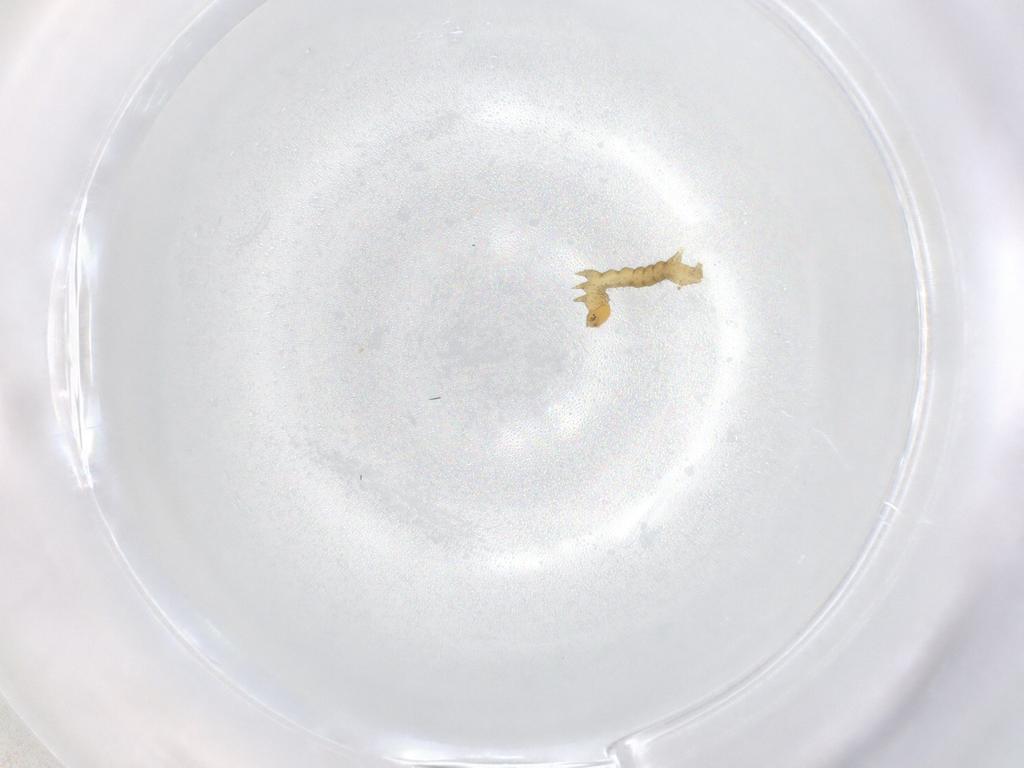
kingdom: Animalia
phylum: Arthropoda
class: Insecta
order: Lepidoptera
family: Geometridae
